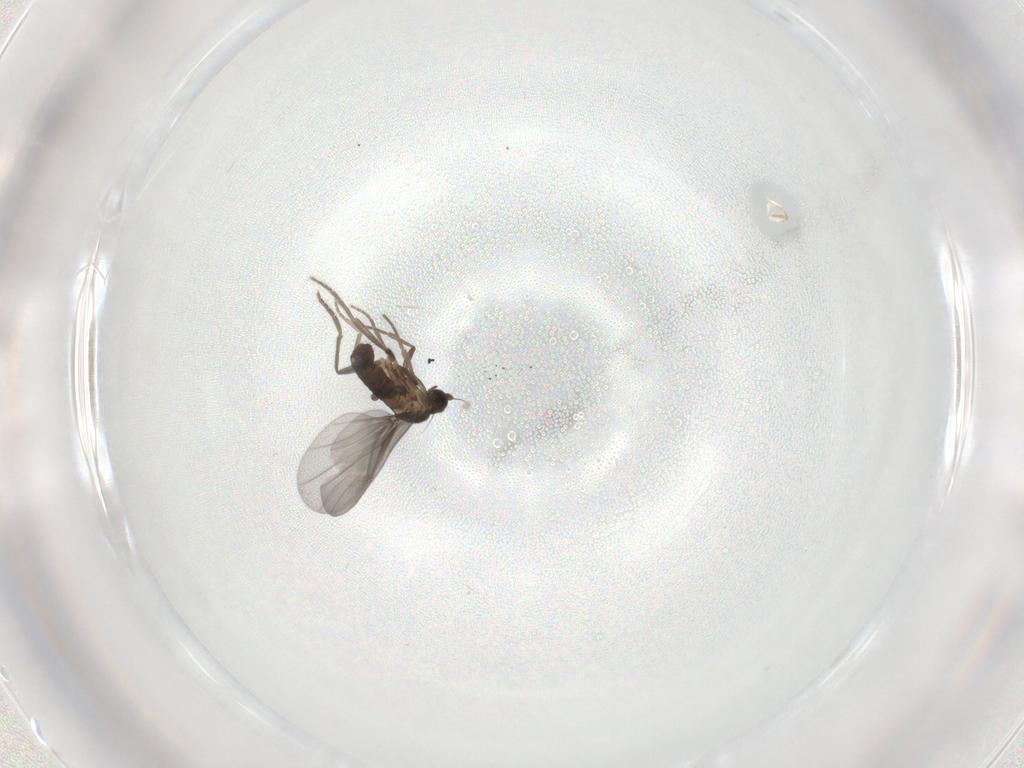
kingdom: Animalia
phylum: Arthropoda
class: Insecta
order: Diptera
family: Phoridae
